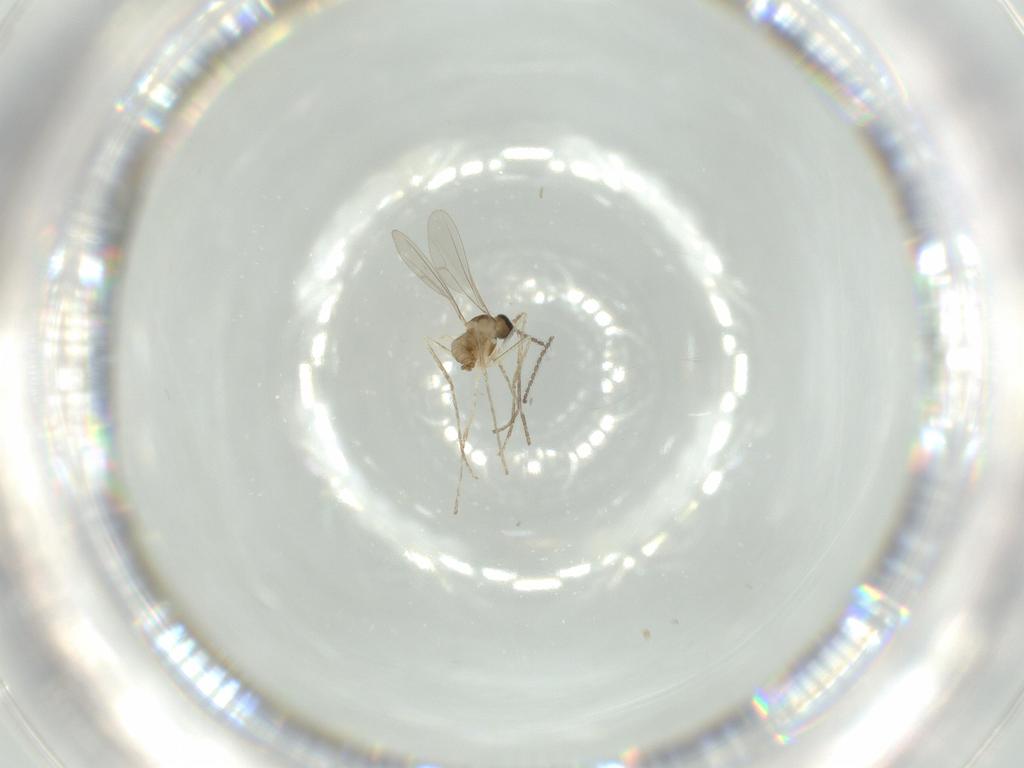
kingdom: Animalia
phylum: Arthropoda
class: Insecta
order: Diptera
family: Cecidomyiidae
